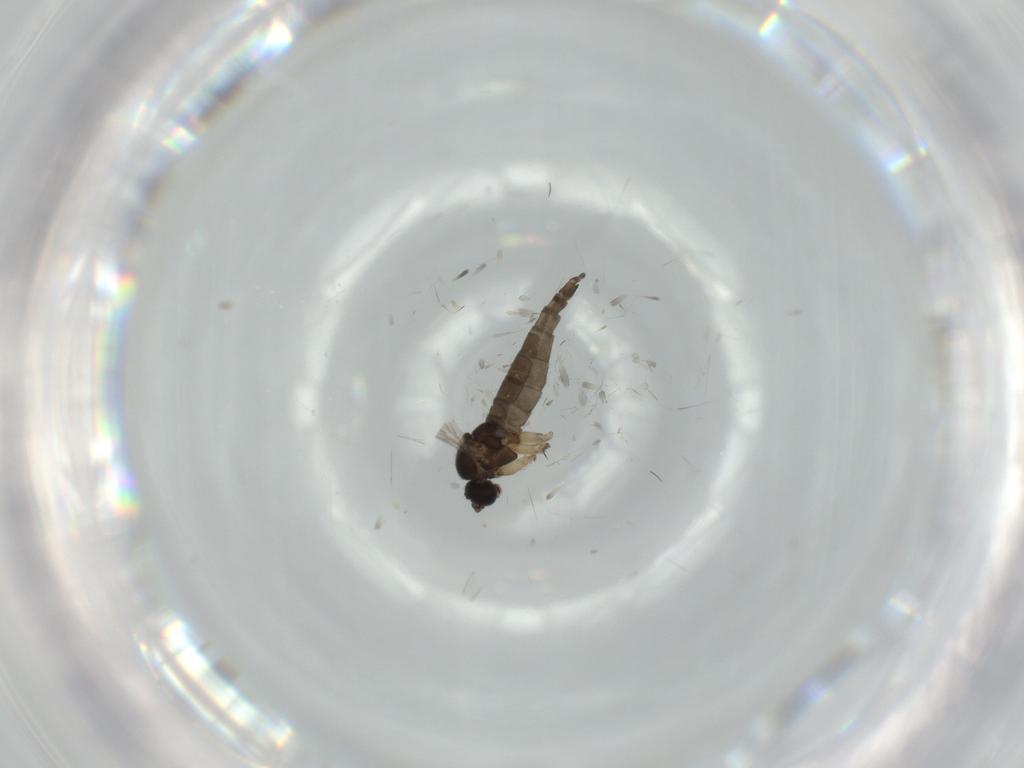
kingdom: Animalia
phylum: Arthropoda
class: Insecta
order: Diptera
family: Sciaridae
